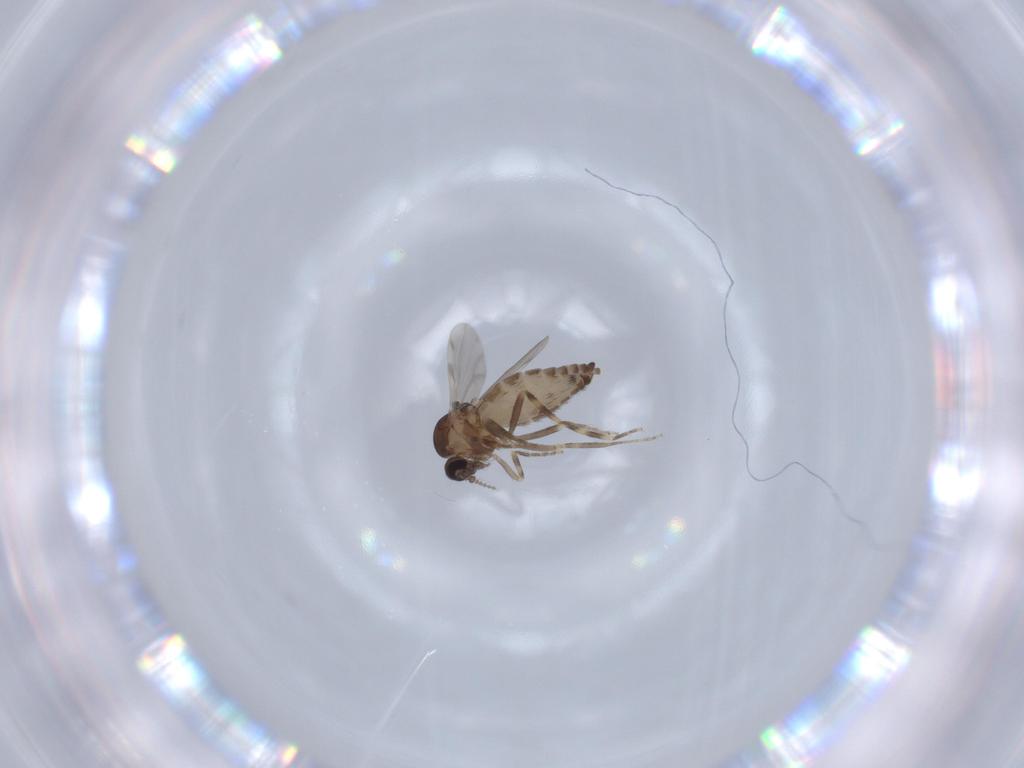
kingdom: Animalia
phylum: Arthropoda
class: Insecta
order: Diptera
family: Ceratopogonidae
